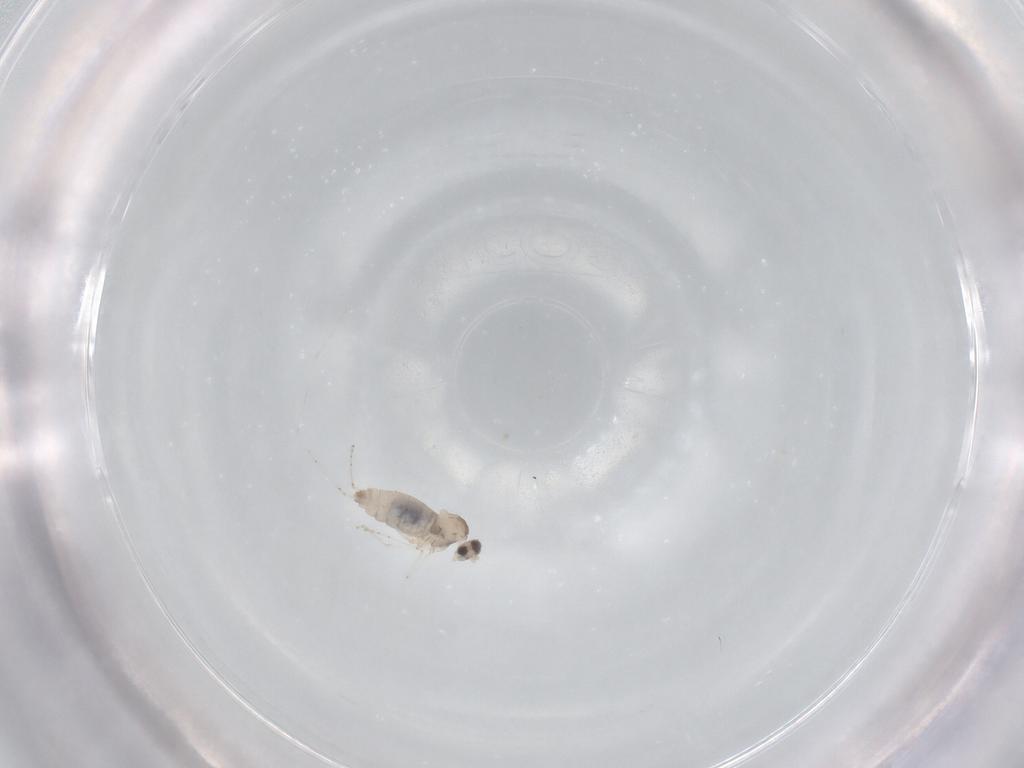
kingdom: Animalia
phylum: Arthropoda
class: Insecta
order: Diptera
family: Cecidomyiidae
